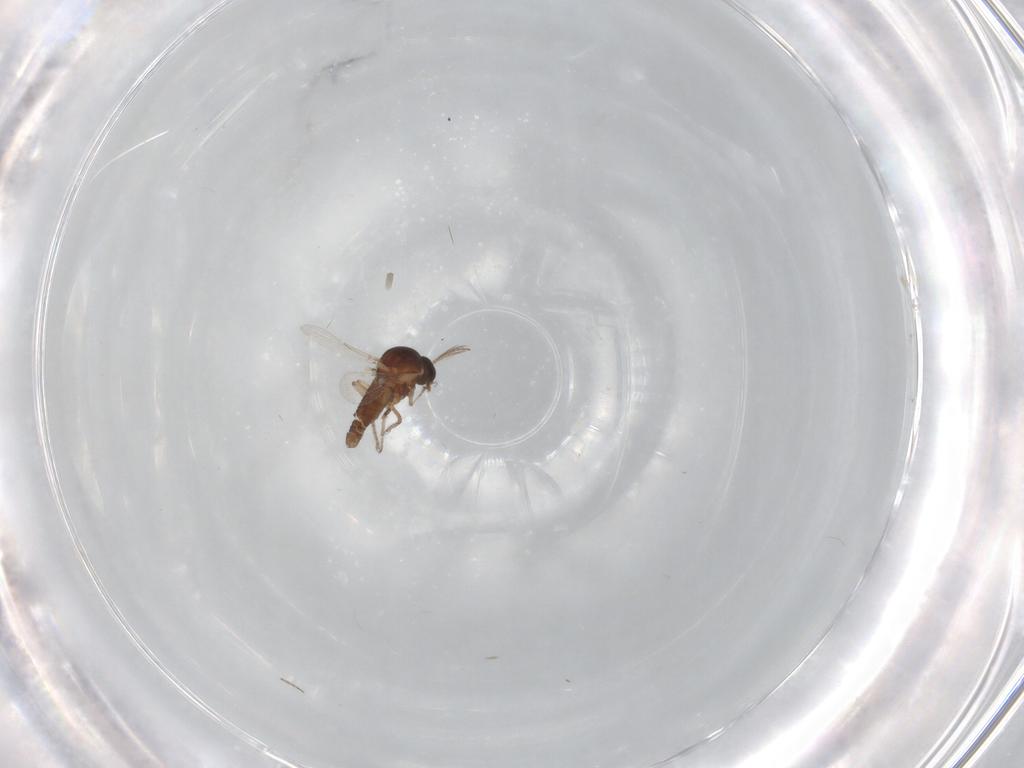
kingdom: Animalia
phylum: Arthropoda
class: Insecta
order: Diptera
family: Ceratopogonidae
